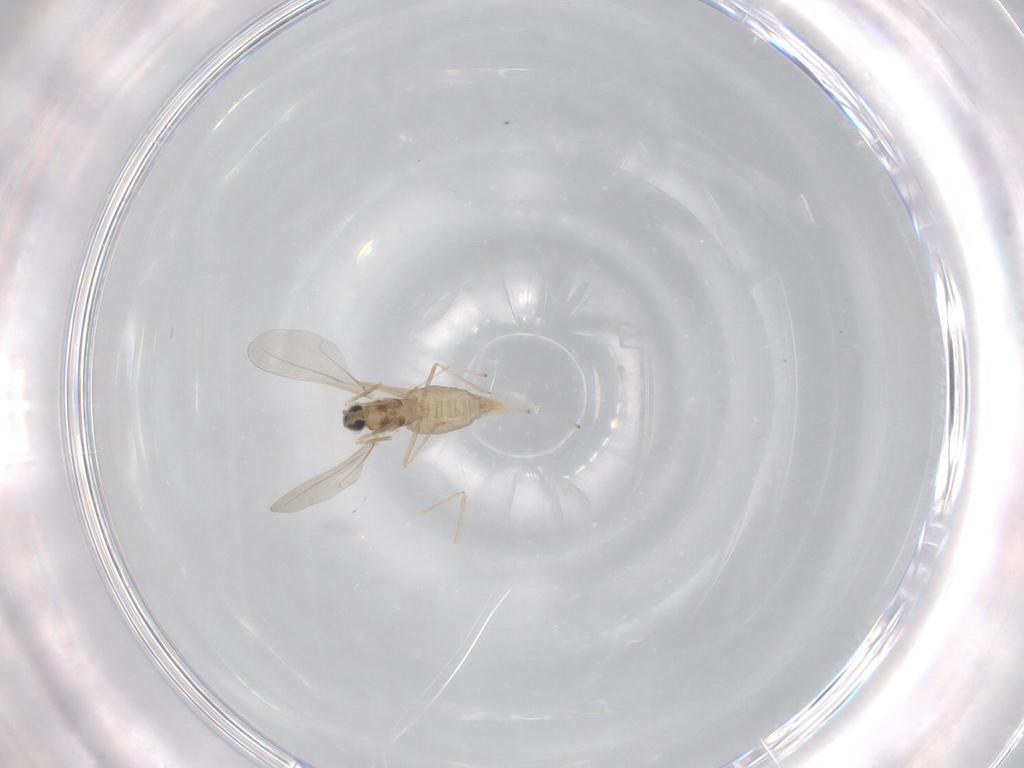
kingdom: Animalia
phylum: Arthropoda
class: Insecta
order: Diptera
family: Cecidomyiidae
